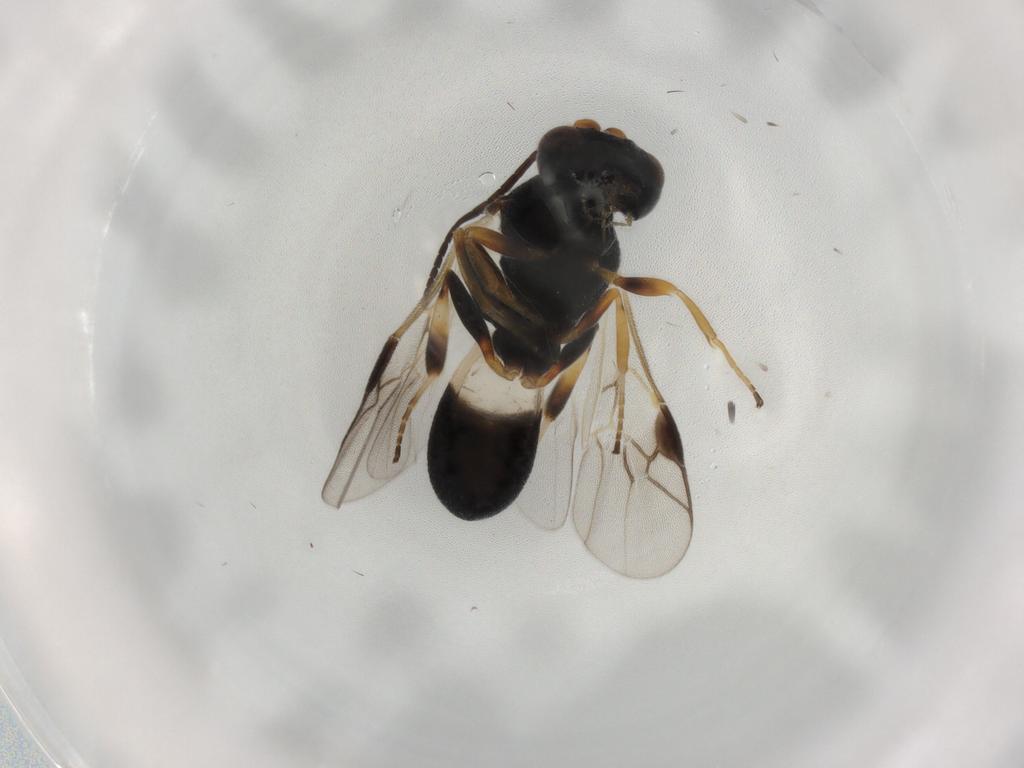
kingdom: Animalia
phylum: Arthropoda
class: Insecta
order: Hymenoptera
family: Braconidae
